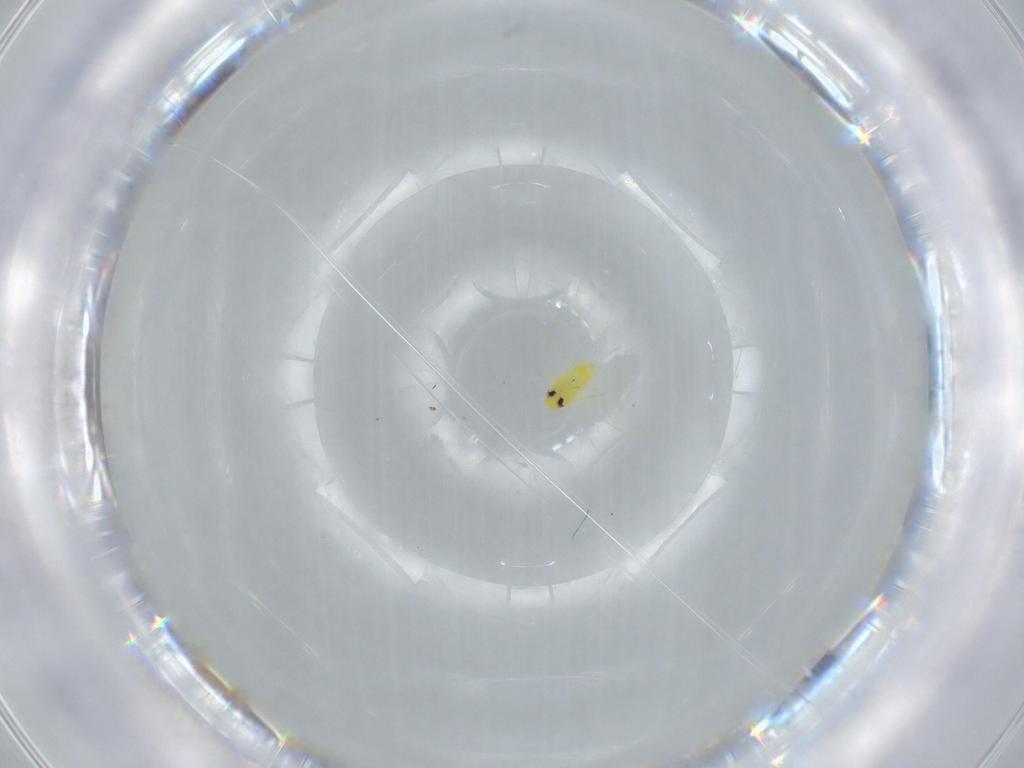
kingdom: Animalia
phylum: Arthropoda
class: Insecta
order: Hemiptera
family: Aleyrodidae
